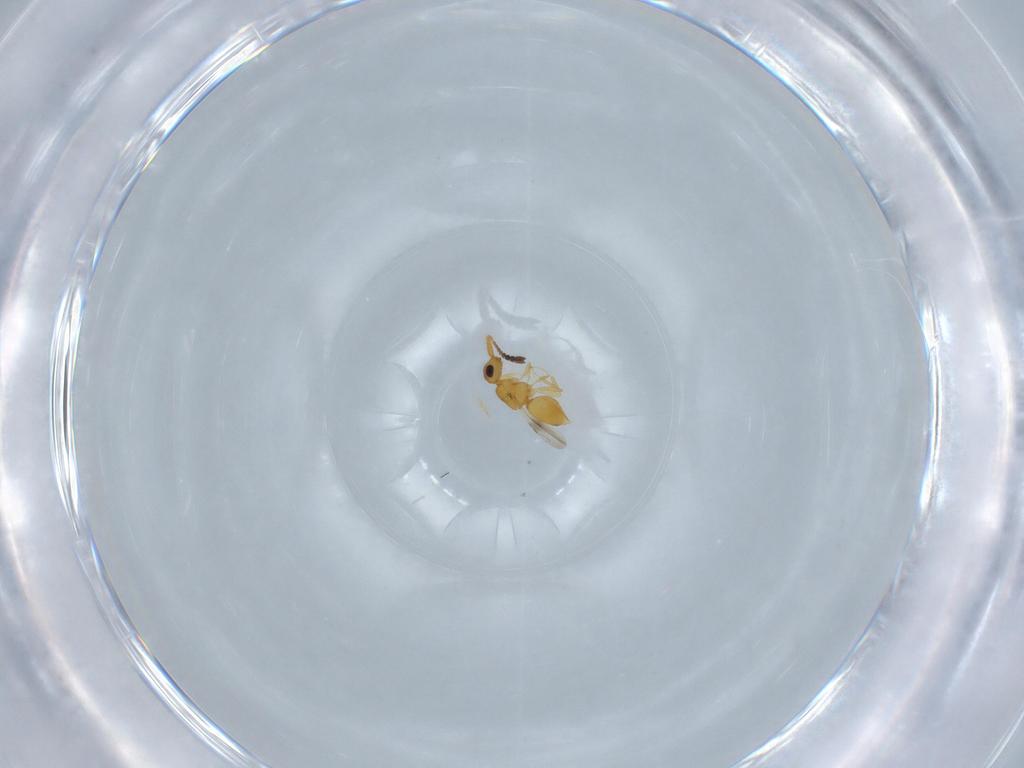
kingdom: Animalia
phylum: Arthropoda
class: Insecta
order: Hymenoptera
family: Ceraphronidae
